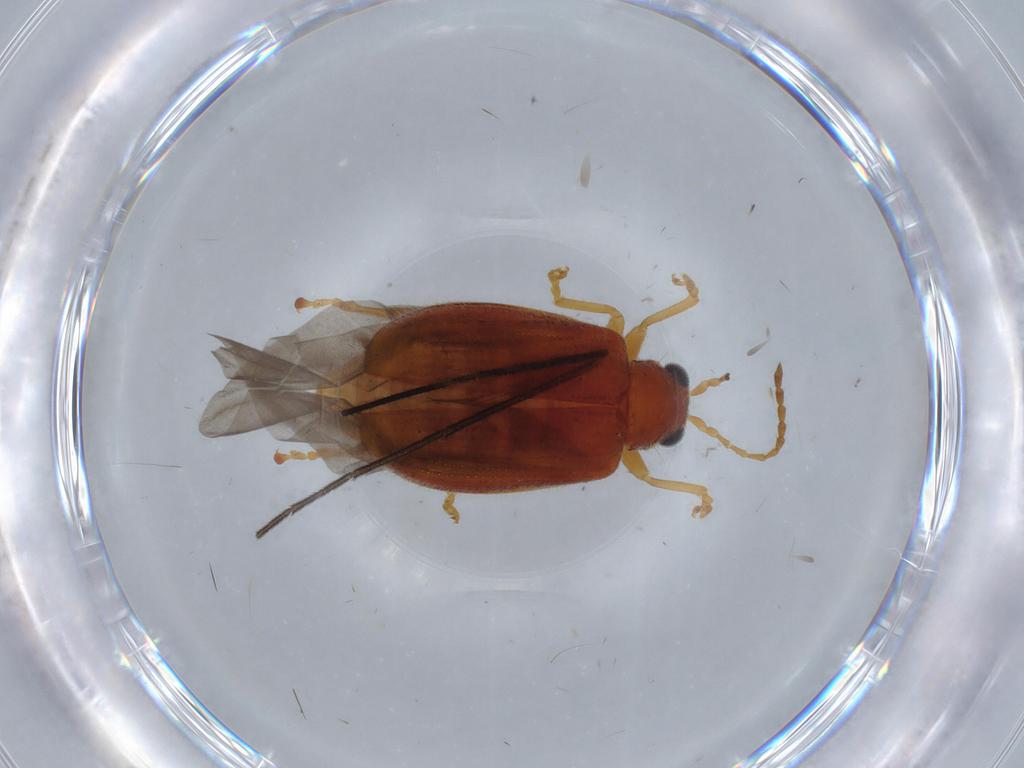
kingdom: Animalia
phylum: Arthropoda
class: Insecta
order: Coleoptera
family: Chrysomelidae
